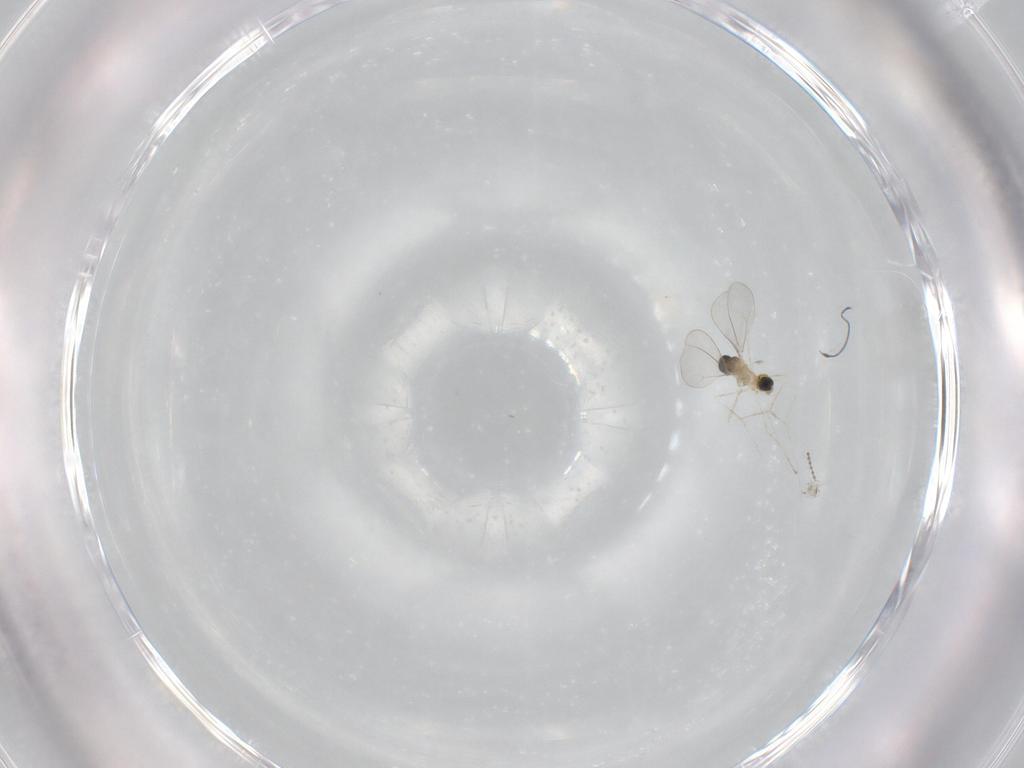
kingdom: Animalia
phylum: Arthropoda
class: Insecta
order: Diptera
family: Cecidomyiidae
